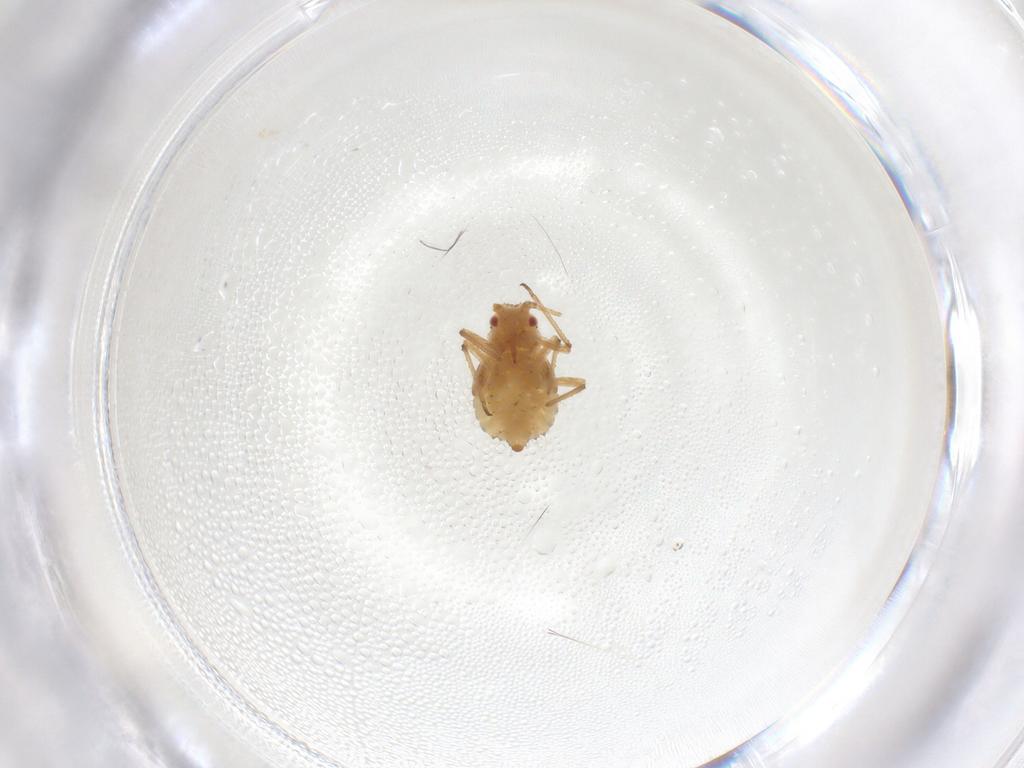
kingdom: Animalia
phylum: Arthropoda
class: Insecta
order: Hemiptera
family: Aphididae
